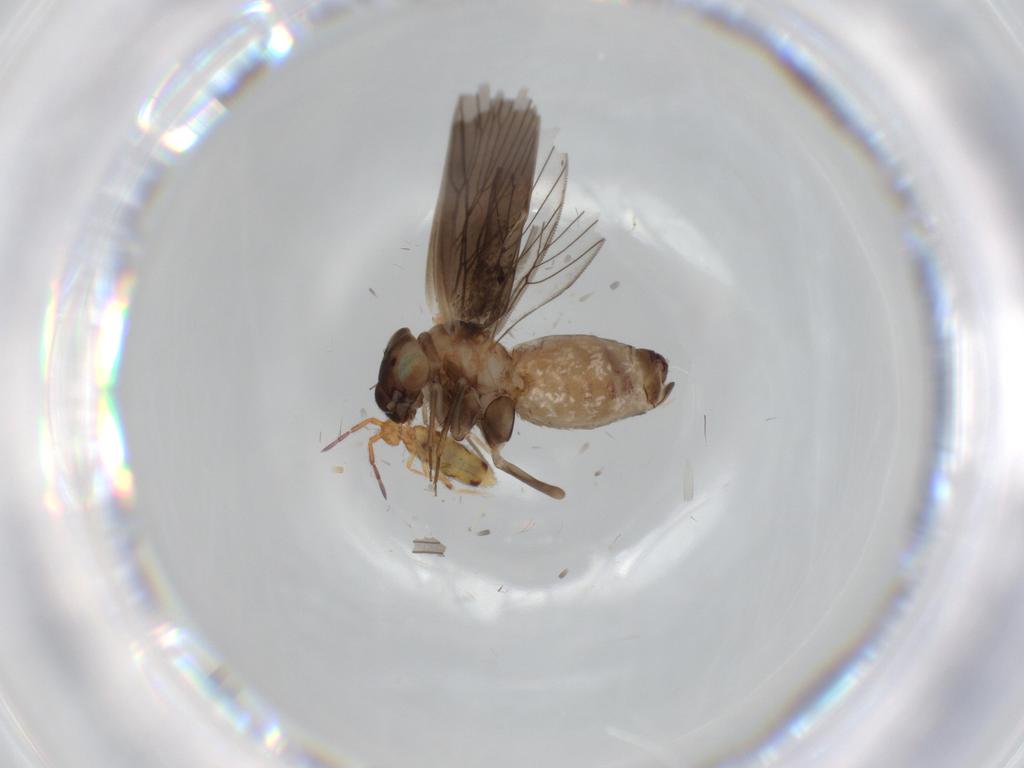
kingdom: Animalia
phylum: Arthropoda
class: Insecta
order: Psocodea
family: Lepidopsocidae
